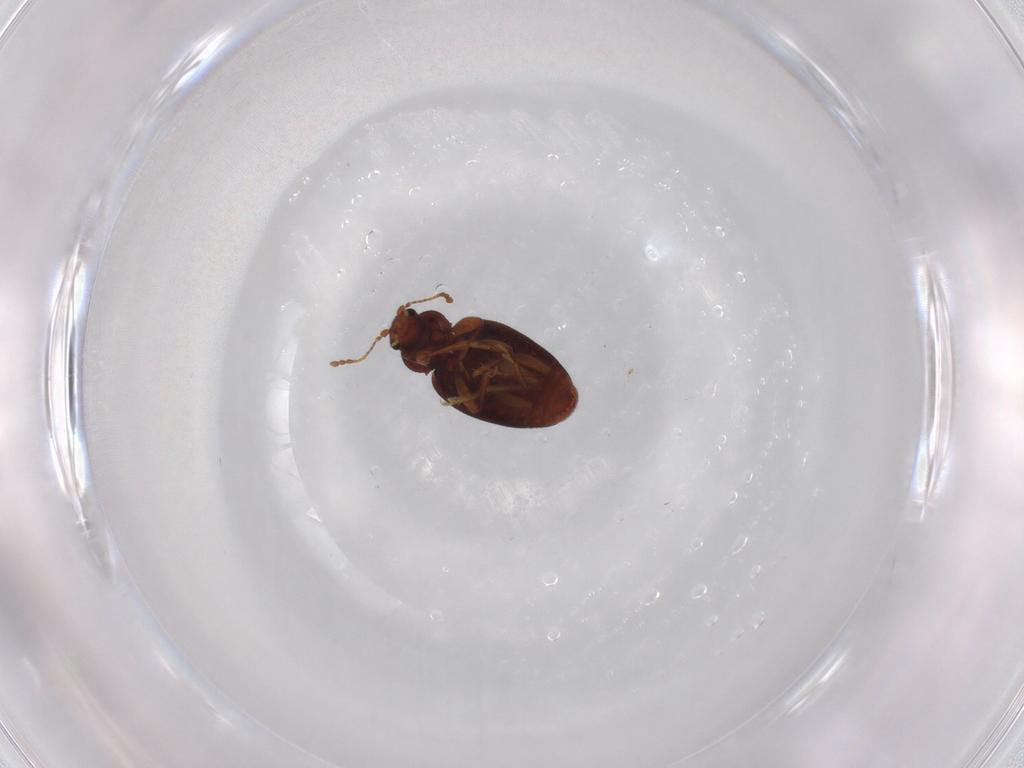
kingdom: Animalia
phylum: Arthropoda
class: Insecta
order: Coleoptera
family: Latridiidae
